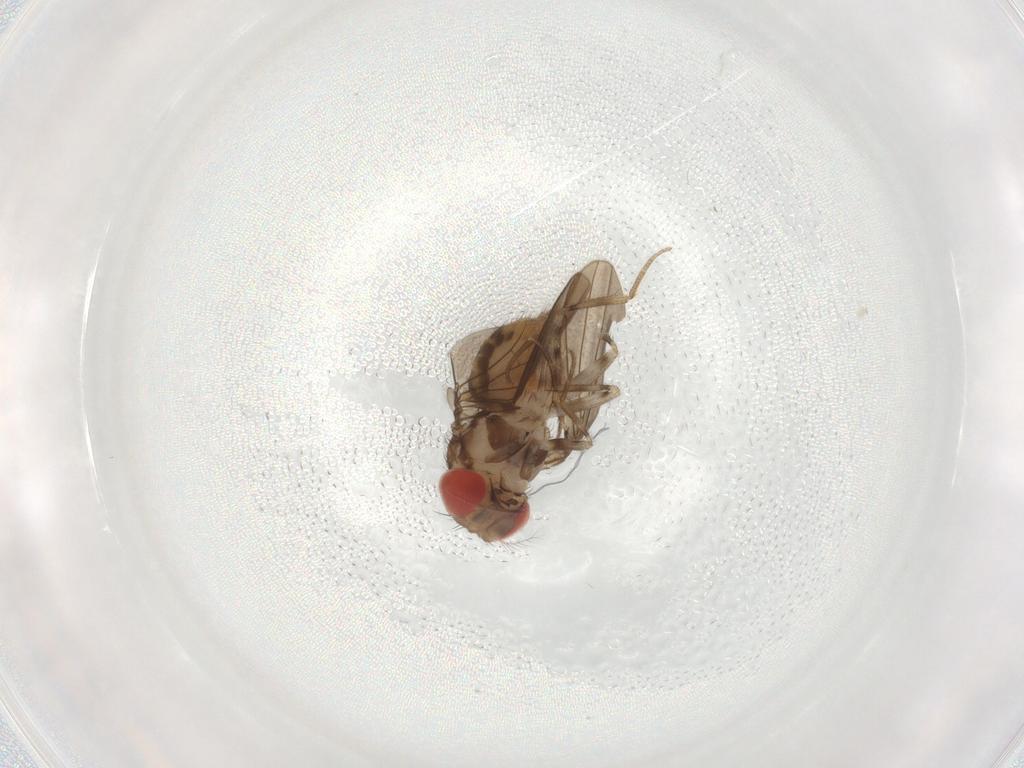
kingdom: Animalia
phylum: Arthropoda
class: Insecta
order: Diptera
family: Drosophilidae
